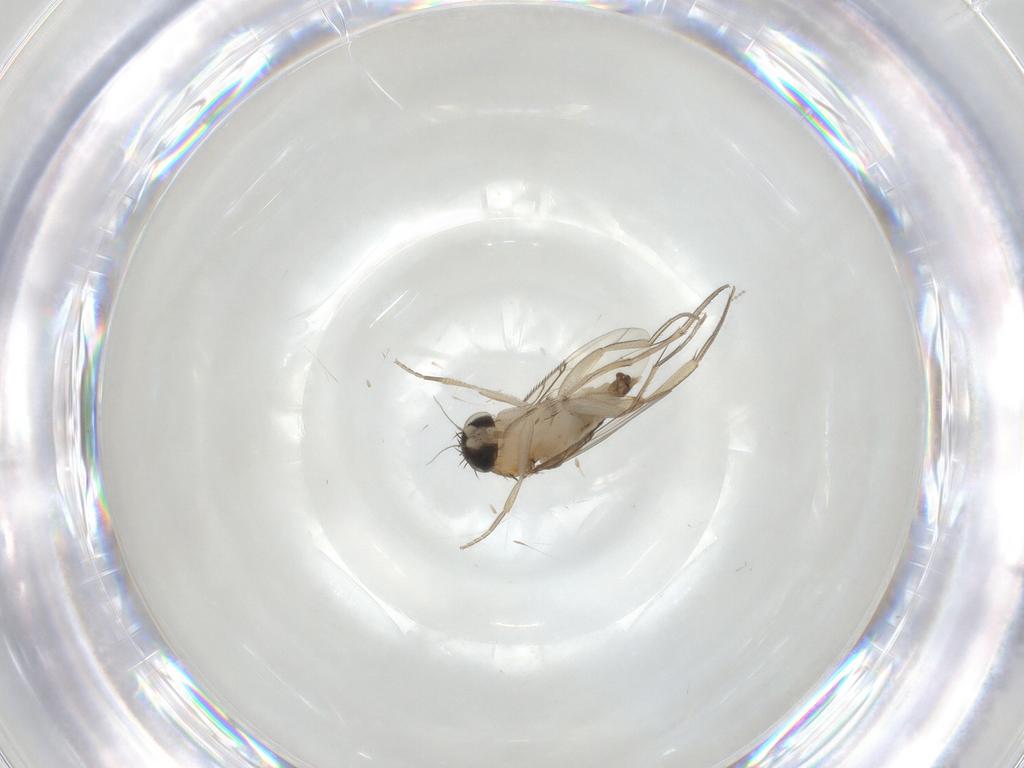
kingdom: Animalia
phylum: Arthropoda
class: Insecta
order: Diptera
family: Phoridae
